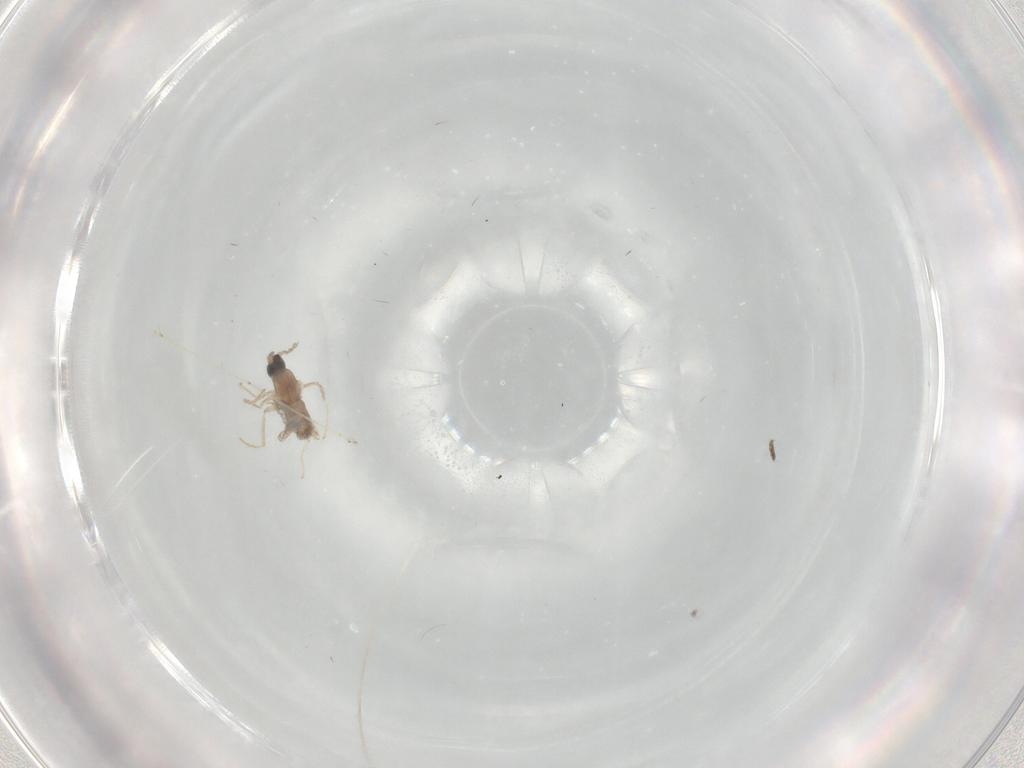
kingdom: Animalia
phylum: Arthropoda
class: Insecta
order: Diptera
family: Cecidomyiidae
